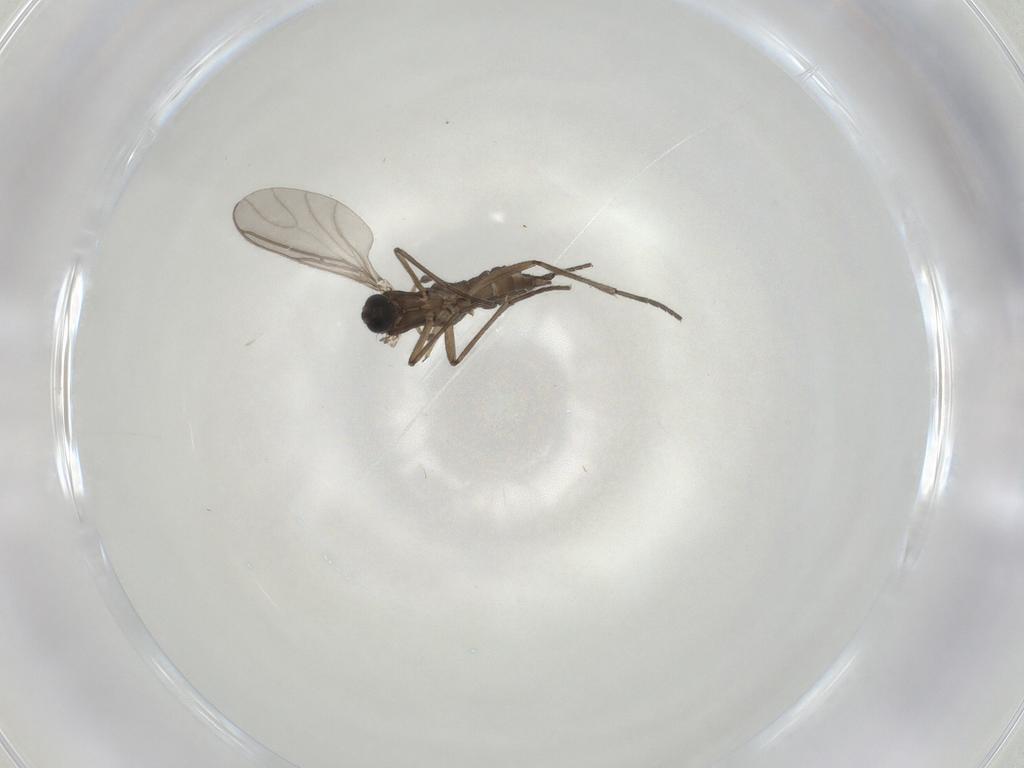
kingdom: Animalia
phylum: Arthropoda
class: Insecta
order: Diptera
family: Sciaridae
